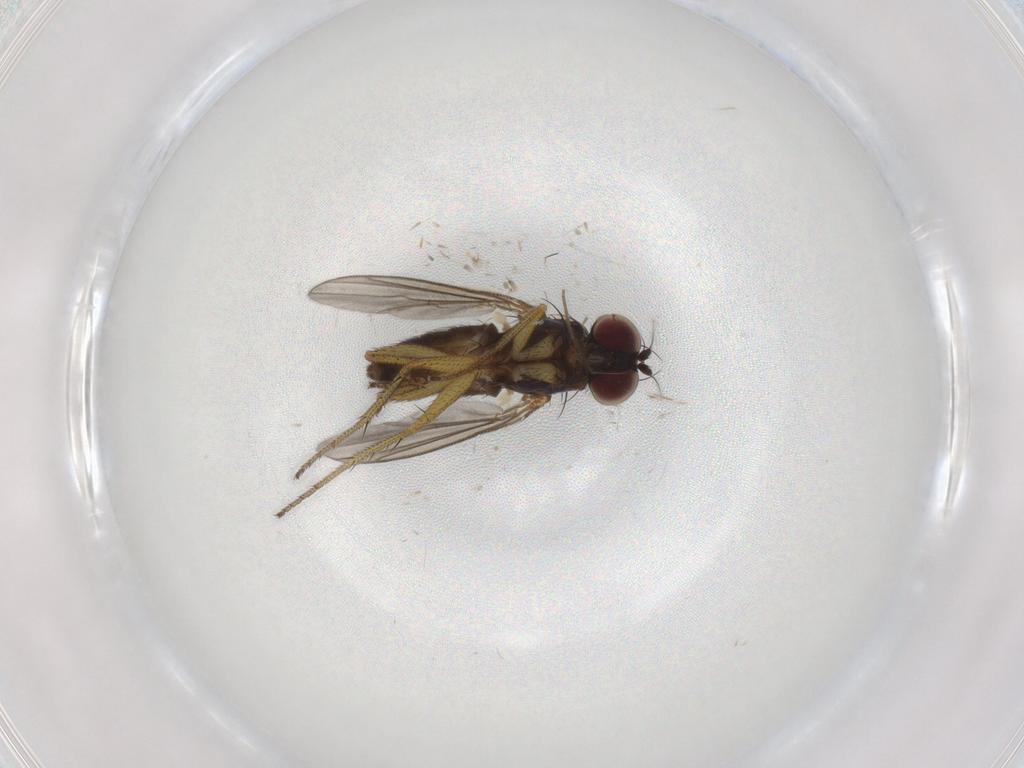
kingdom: Animalia
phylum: Arthropoda
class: Insecta
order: Diptera
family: Dolichopodidae
